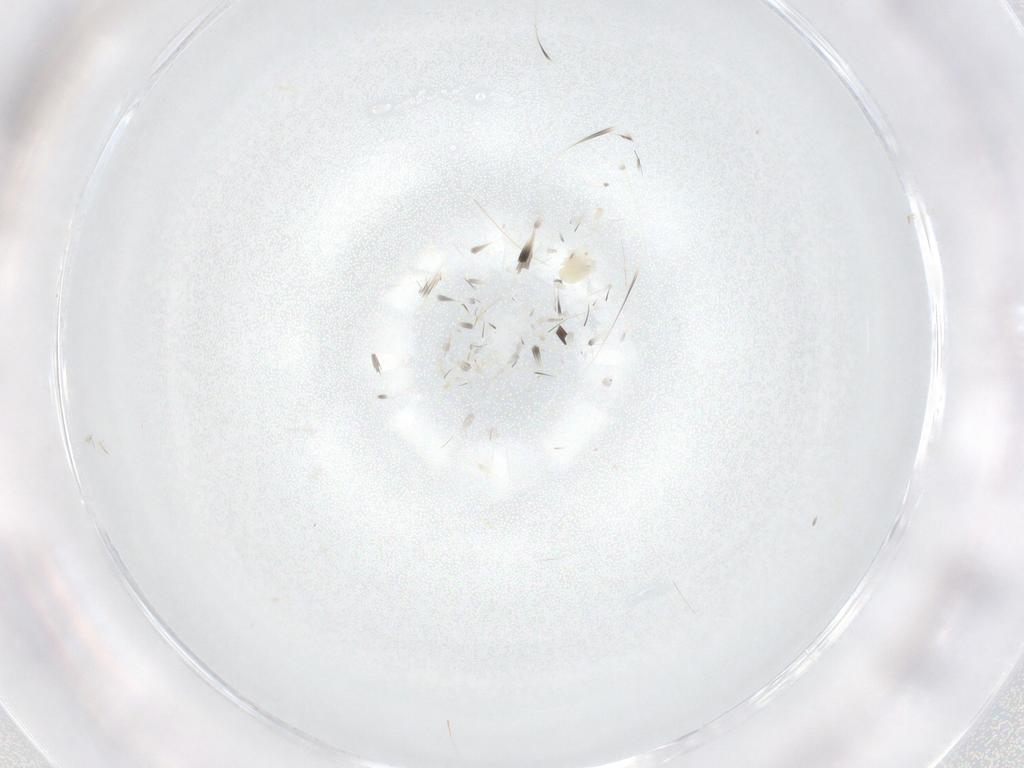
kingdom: Animalia
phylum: Arthropoda
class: Arachnida
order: Trombidiformes
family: Tetranychidae
